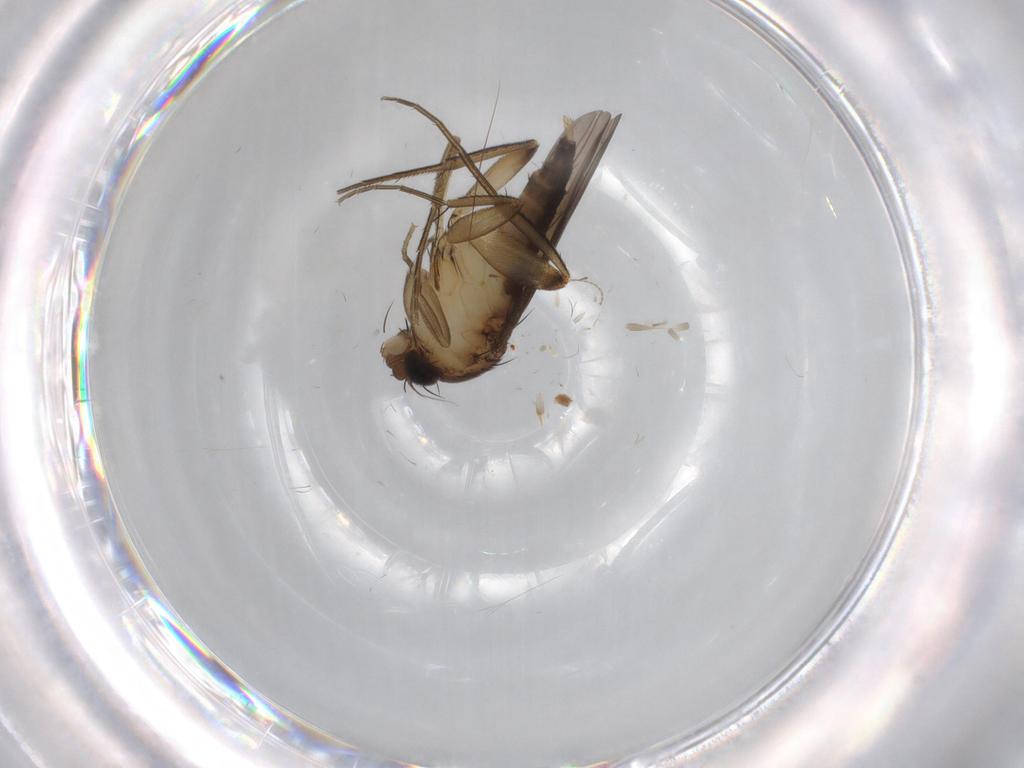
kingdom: Animalia
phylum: Arthropoda
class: Insecta
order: Diptera
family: Phoridae
